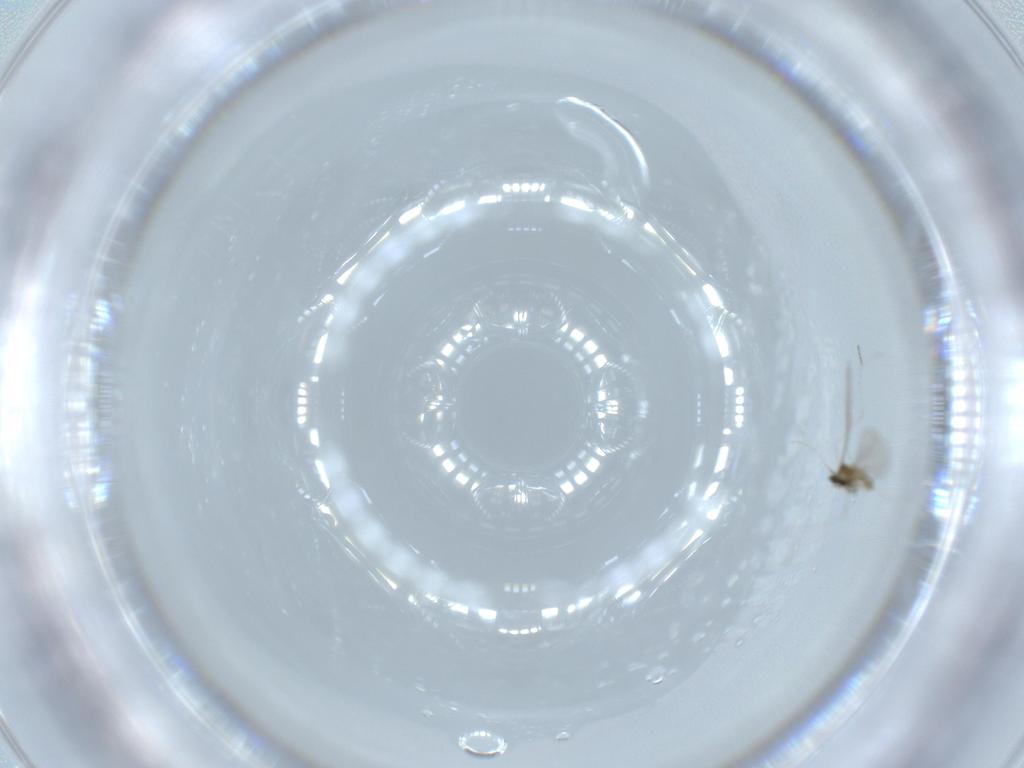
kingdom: Animalia
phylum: Arthropoda
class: Insecta
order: Diptera
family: Cecidomyiidae
